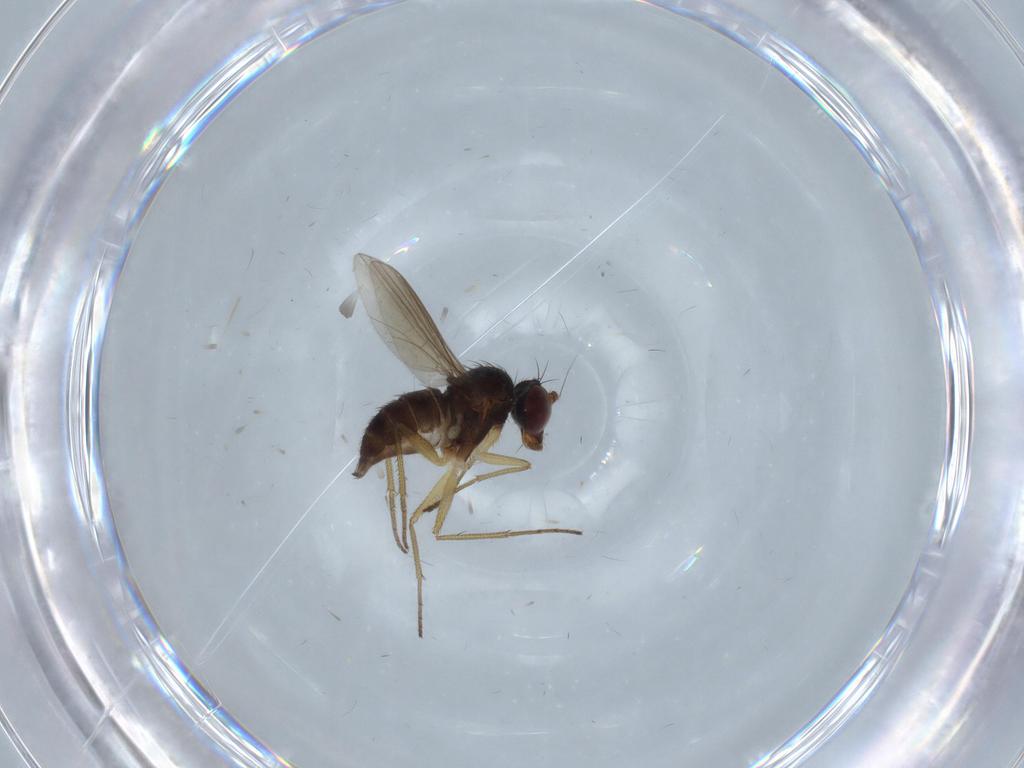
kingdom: Animalia
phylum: Arthropoda
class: Insecta
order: Diptera
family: Dolichopodidae
